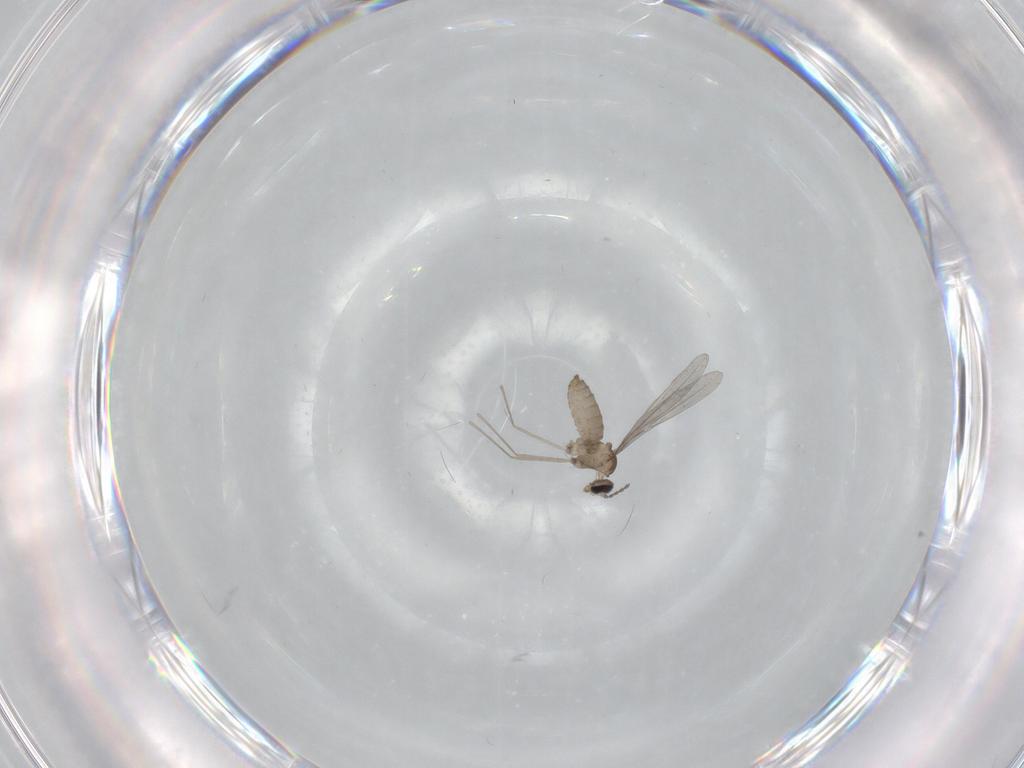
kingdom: Animalia
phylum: Arthropoda
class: Insecta
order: Diptera
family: Cecidomyiidae
